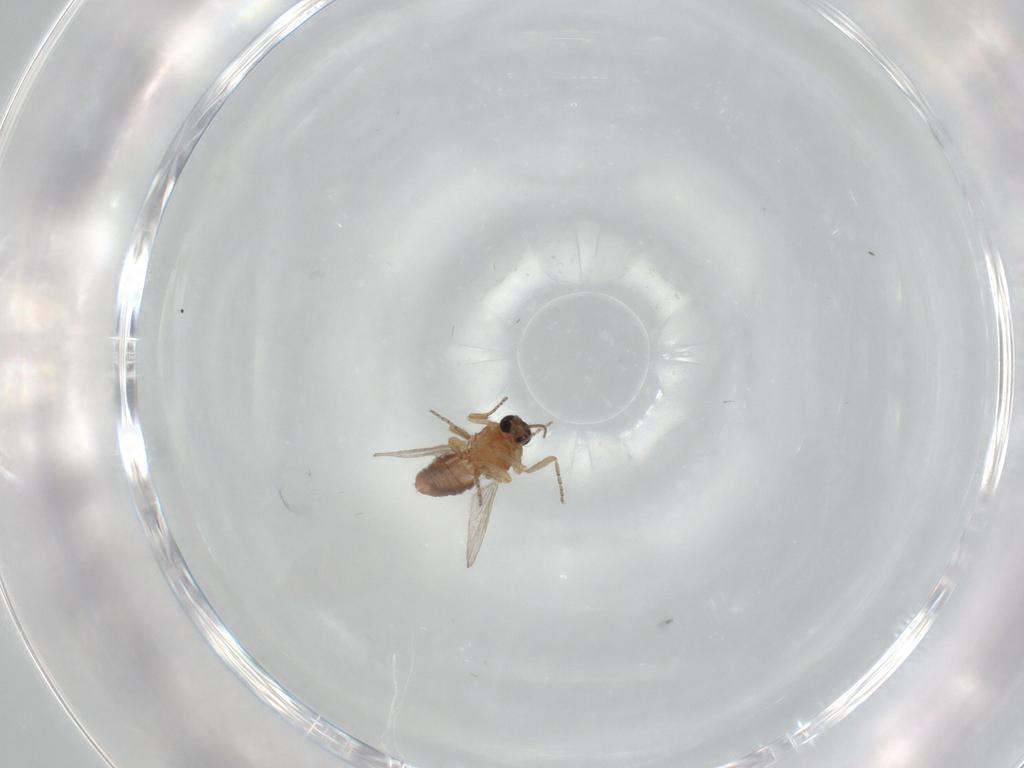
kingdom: Animalia
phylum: Arthropoda
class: Insecta
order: Diptera
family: Ceratopogonidae
